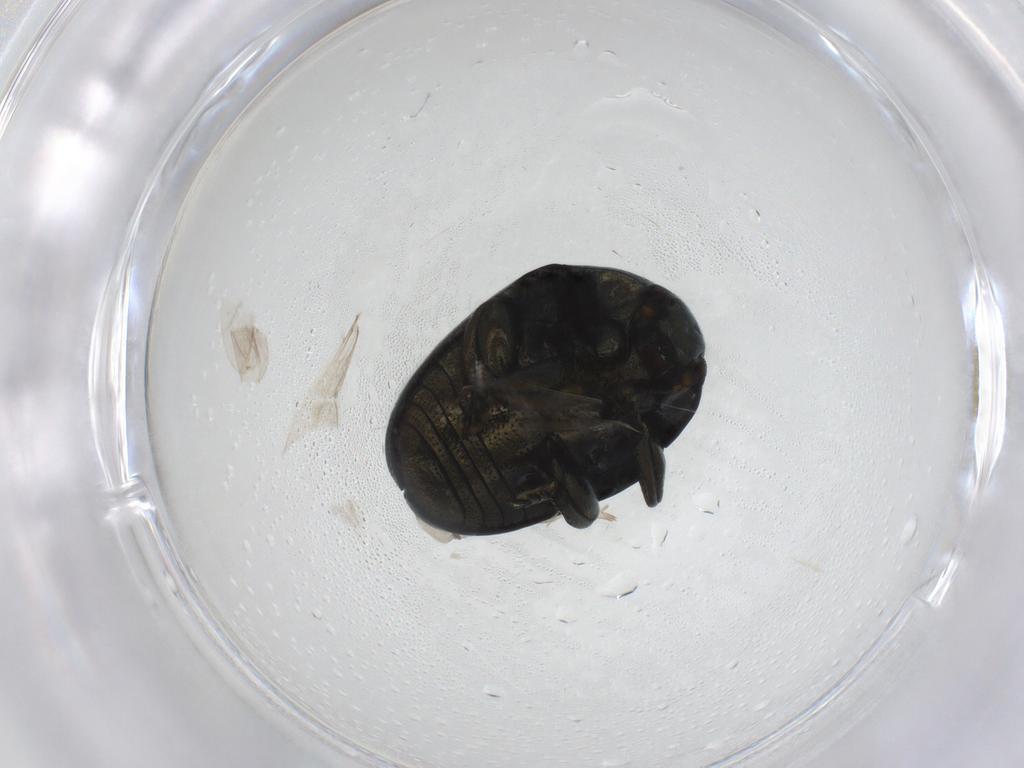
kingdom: Animalia
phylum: Arthropoda
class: Insecta
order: Coleoptera
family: Chrysomelidae
